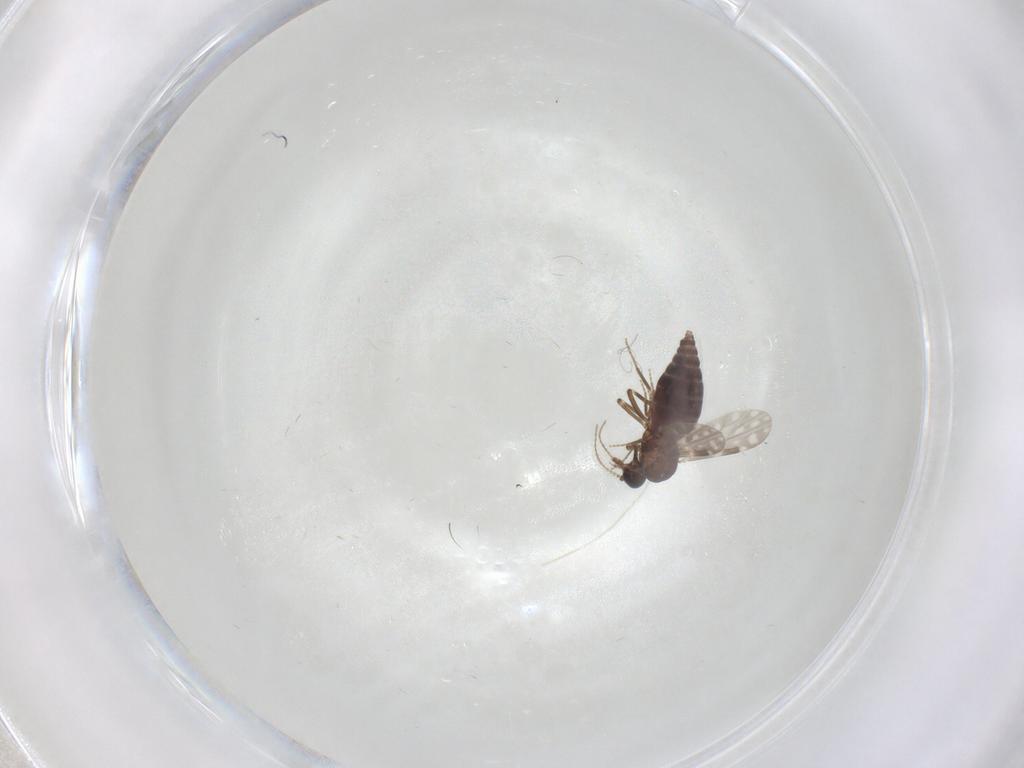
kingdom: Animalia
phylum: Arthropoda
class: Insecta
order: Diptera
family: Ceratopogonidae
